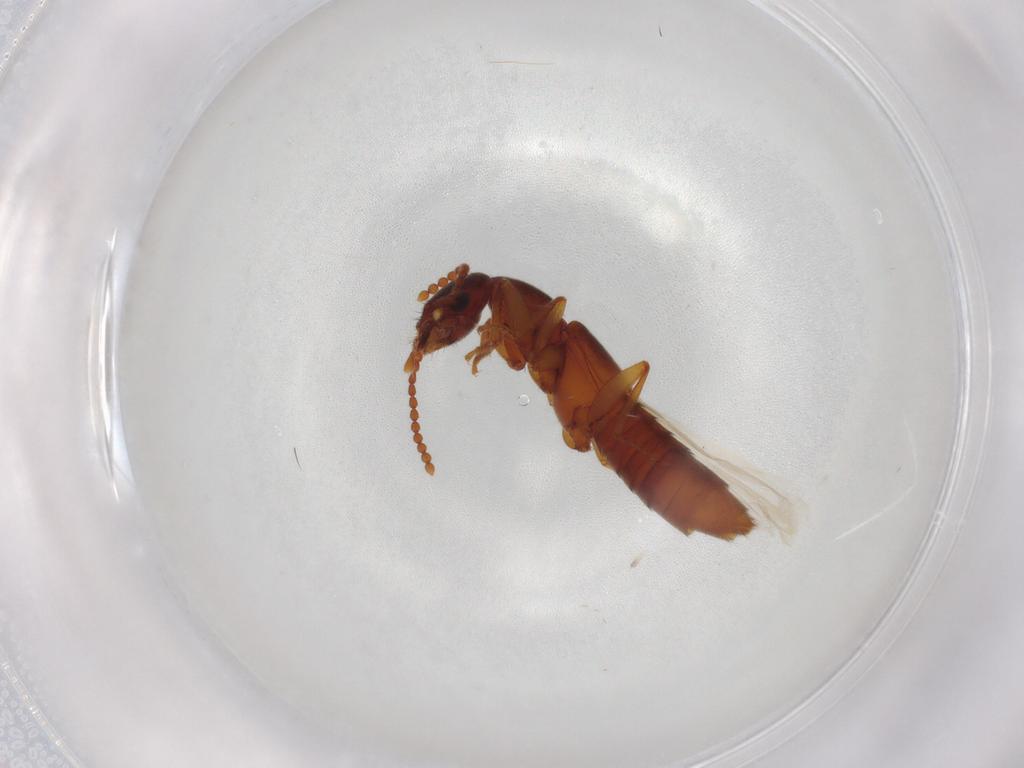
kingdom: Animalia
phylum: Arthropoda
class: Insecta
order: Coleoptera
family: Staphylinidae
